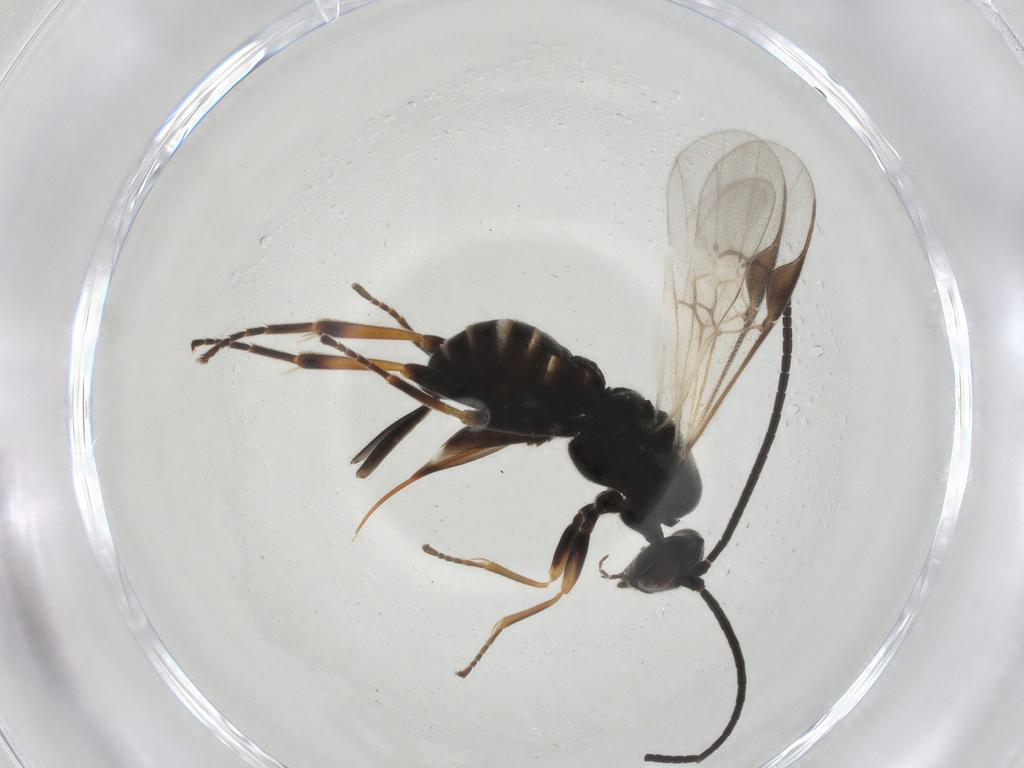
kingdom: Animalia
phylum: Arthropoda
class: Insecta
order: Hymenoptera
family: Braconidae
